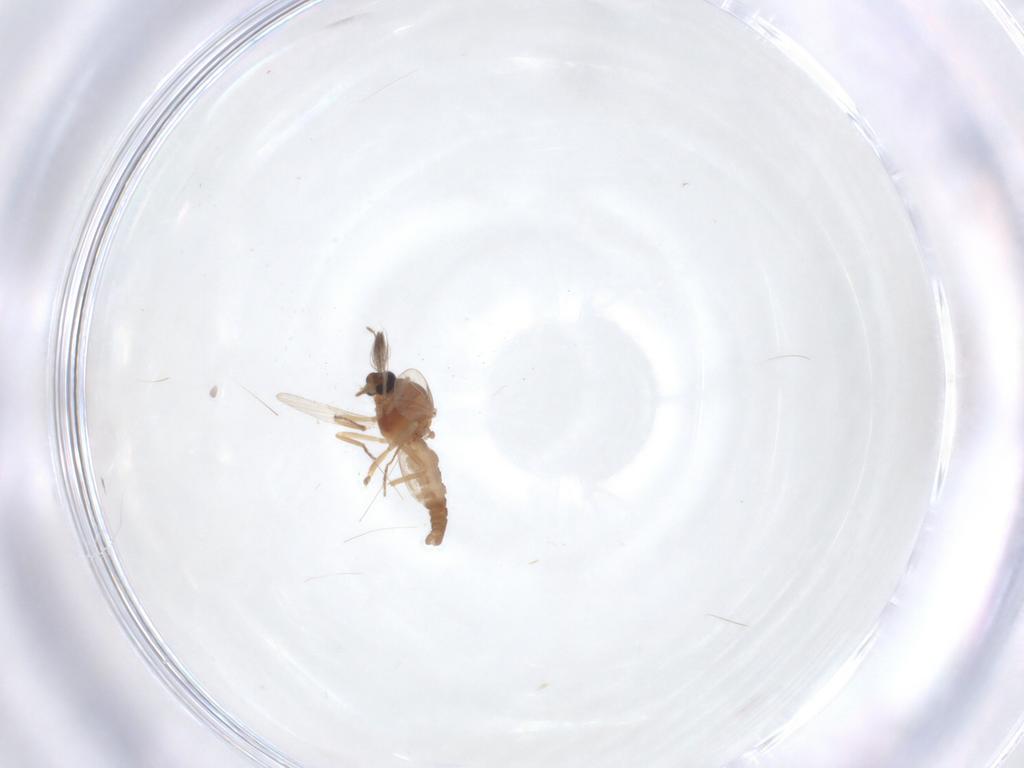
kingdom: Animalia
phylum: Arthropoda
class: Insecta
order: Diptera
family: Ceratopogonidae
